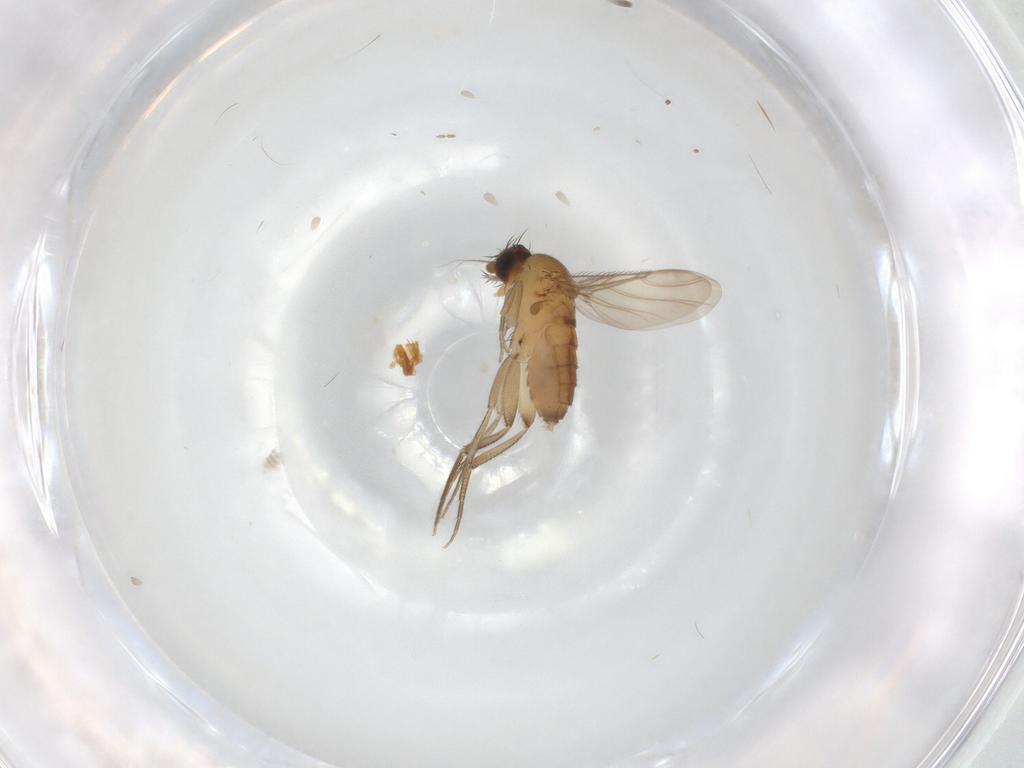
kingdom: Animalia
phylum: Arthropoda
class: Insecta
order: Diptera
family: Phoridae
